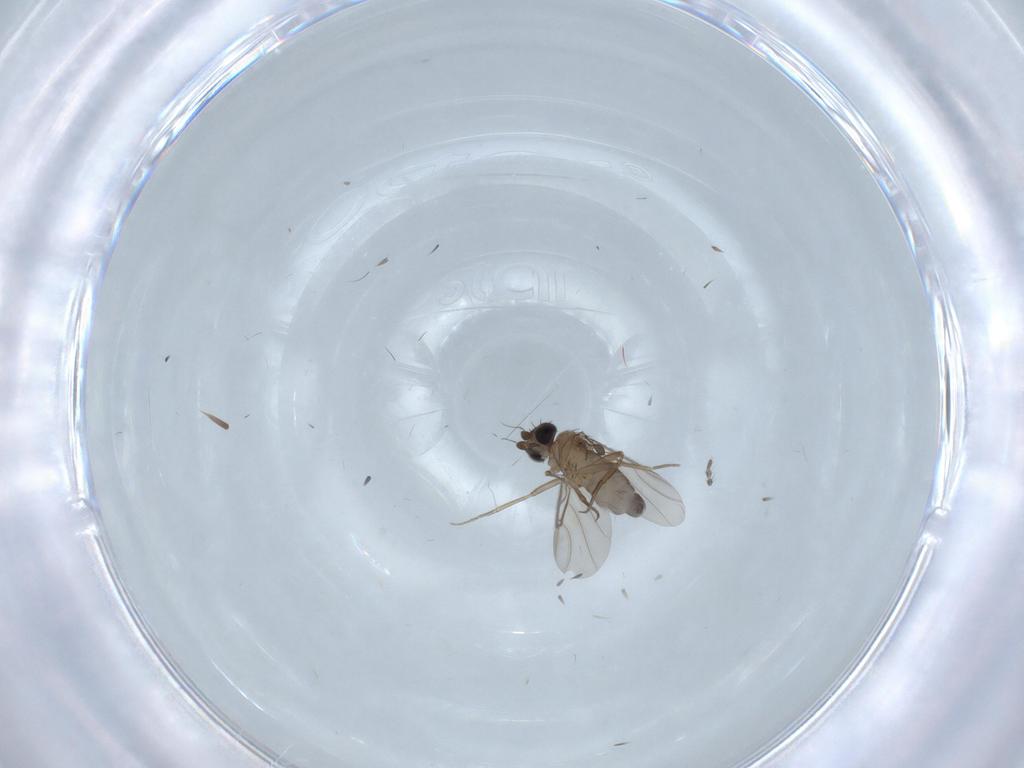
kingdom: Animalia
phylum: Arthropoda
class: Insecta
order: Diptera
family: Phoridae
